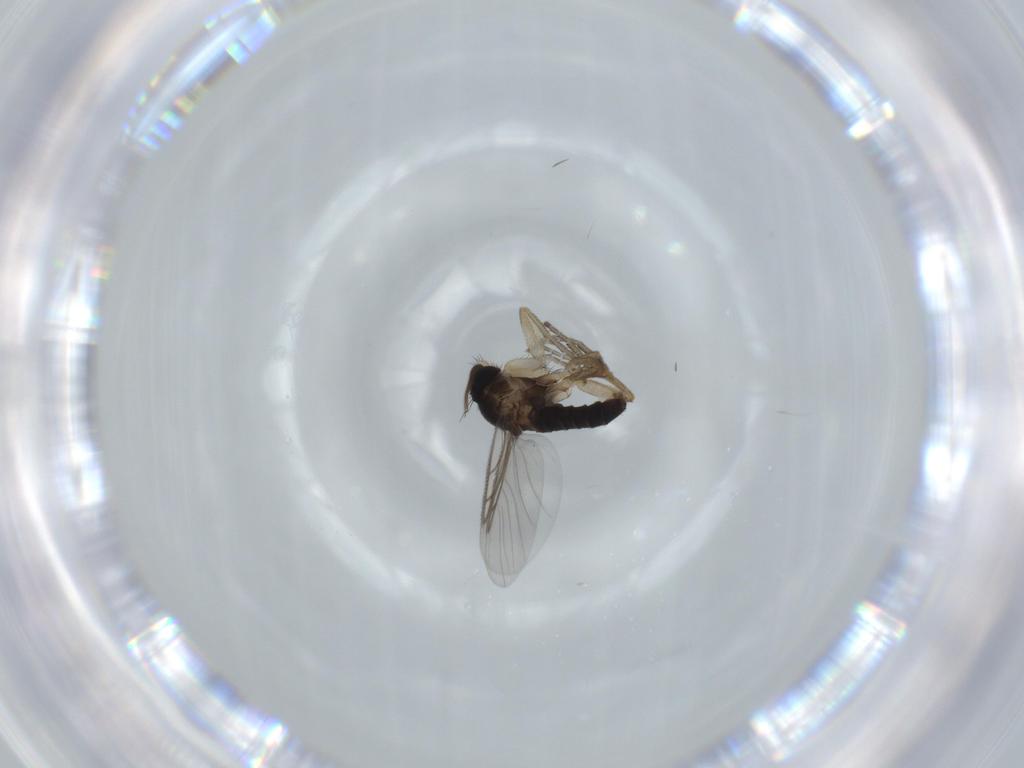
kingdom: Animalia
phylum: Arthropoda
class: Insecta
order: Diptera
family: Phoridae
